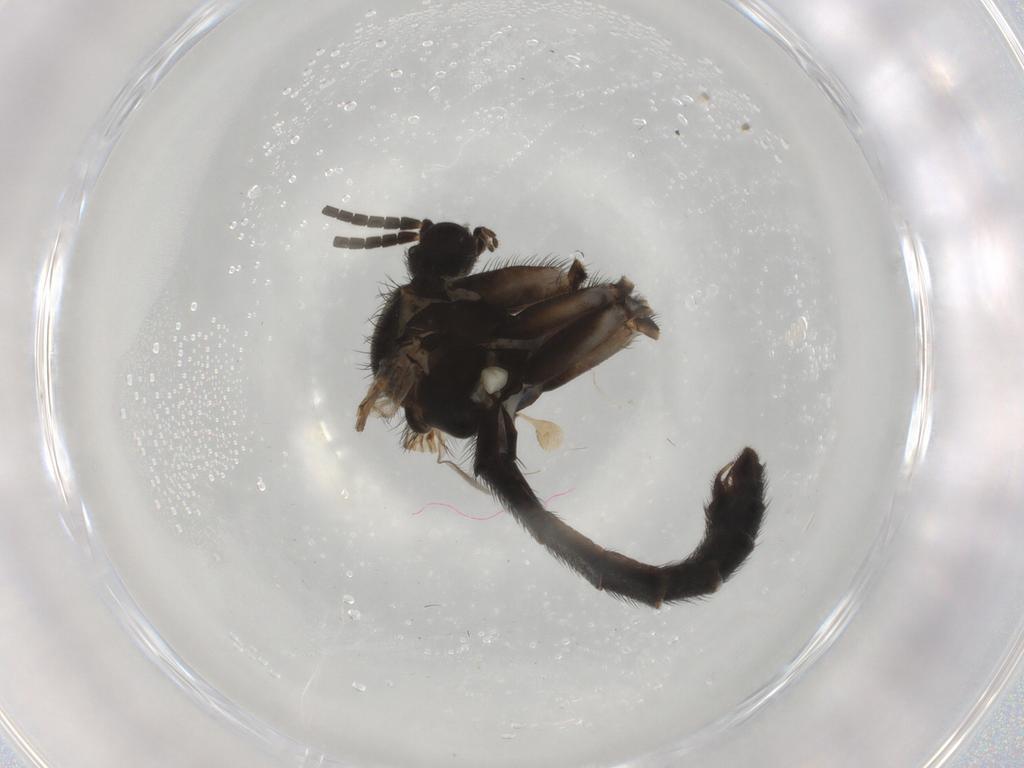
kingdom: Animalia
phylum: Arthropoda
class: Insecta
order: Diptera
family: Keroplatidae
